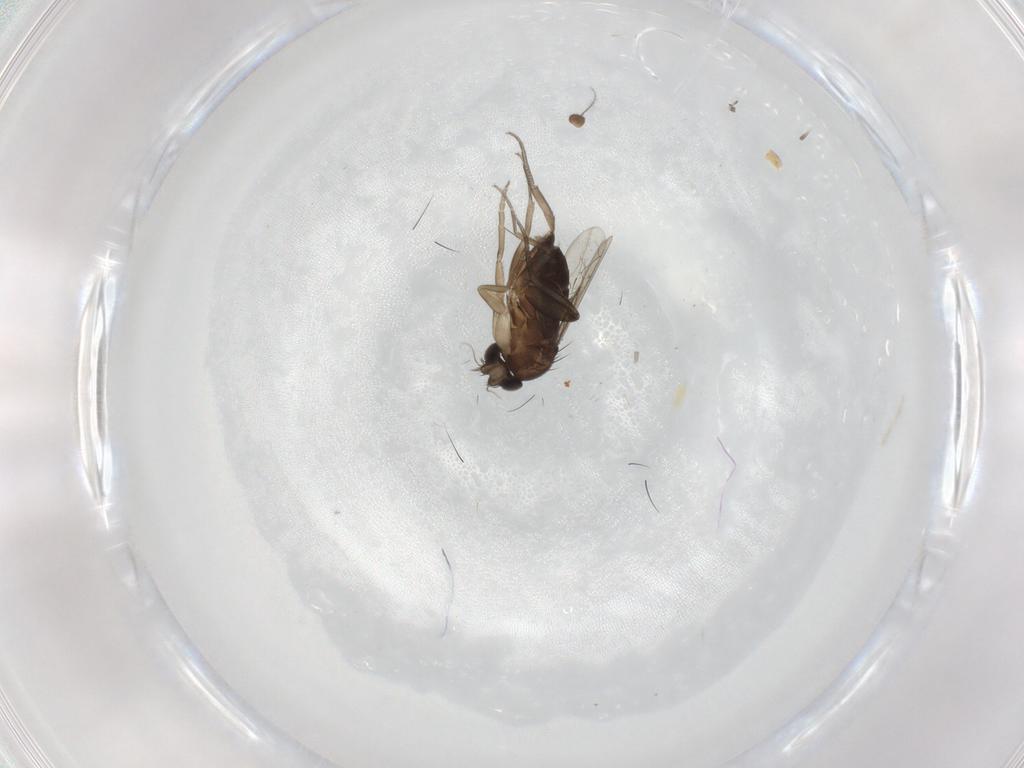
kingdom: Animalia
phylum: Arthropoda
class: Insecta
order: Diptera
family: Phoridae
